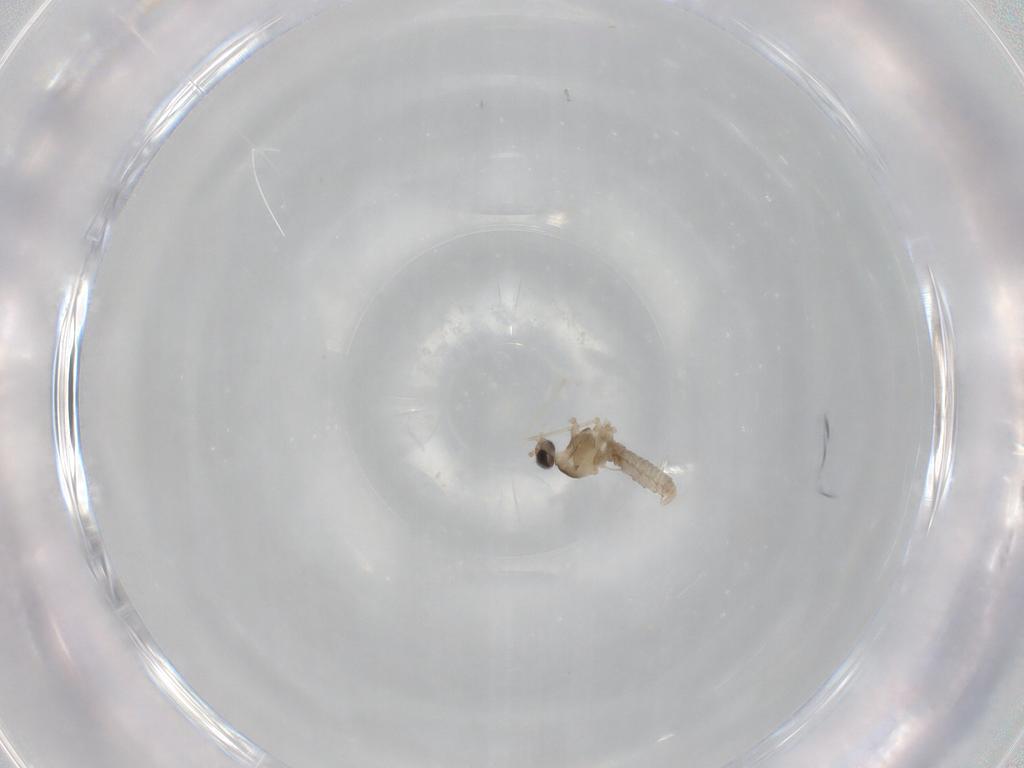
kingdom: Animalia
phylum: Arthropoda
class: Insecta
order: Diptera
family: Cecidomyiidae
